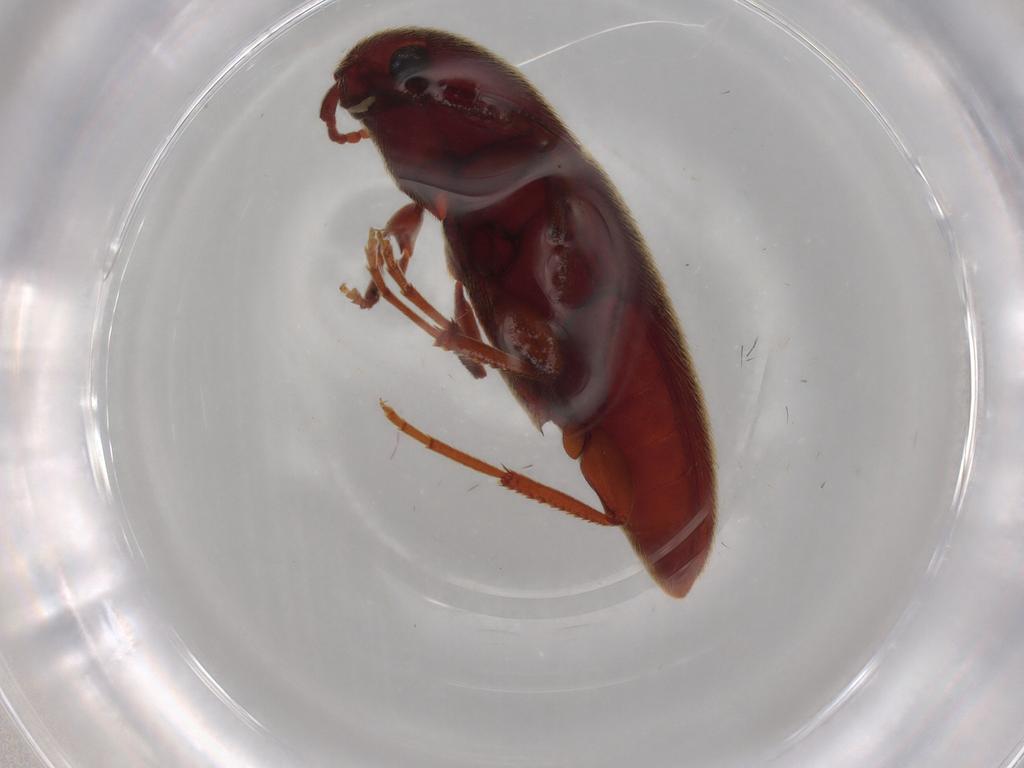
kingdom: Animalia
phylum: Arthropoda
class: Insecta
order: Coleoptera
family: Eucnemidae
